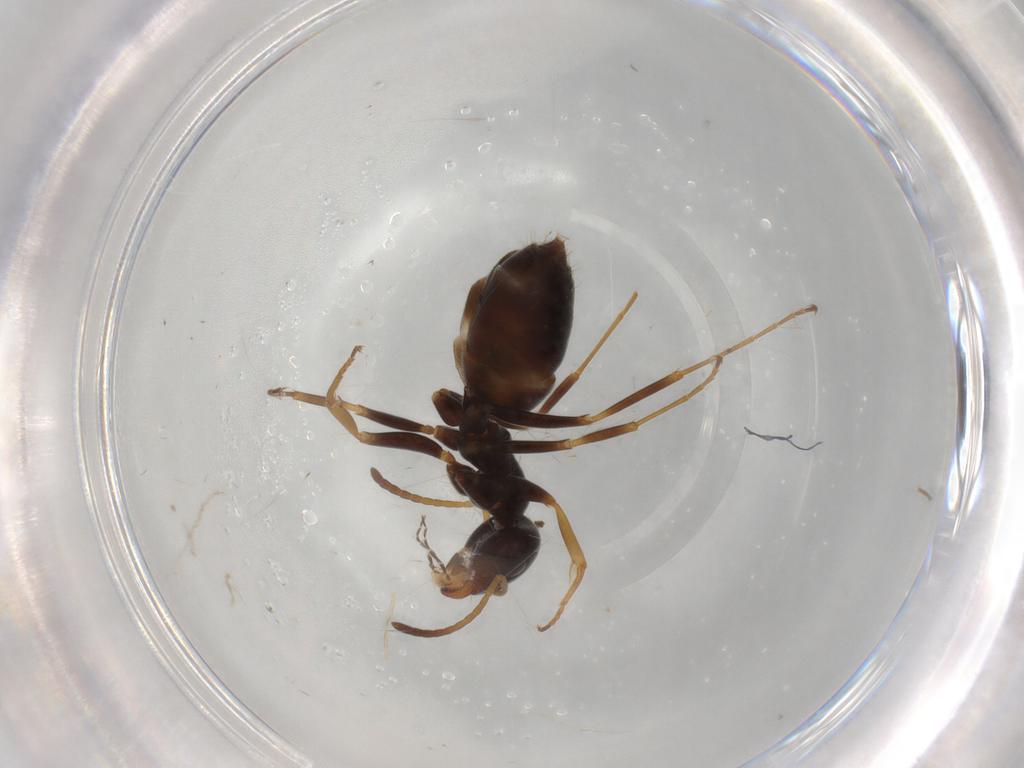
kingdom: Animalia
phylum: Arthropoda
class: Insecta
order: Hymenoptera
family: Formicidae
